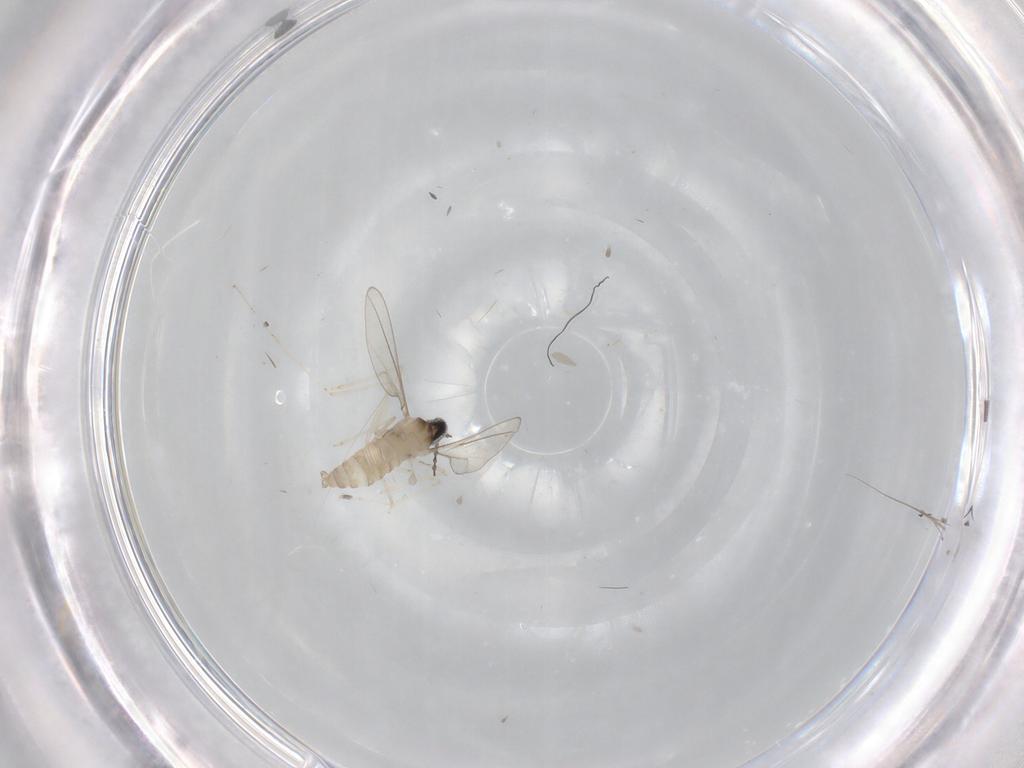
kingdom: Animalia
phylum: Arthropoda
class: Insecta
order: Diptera
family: Cecidomyiidae
